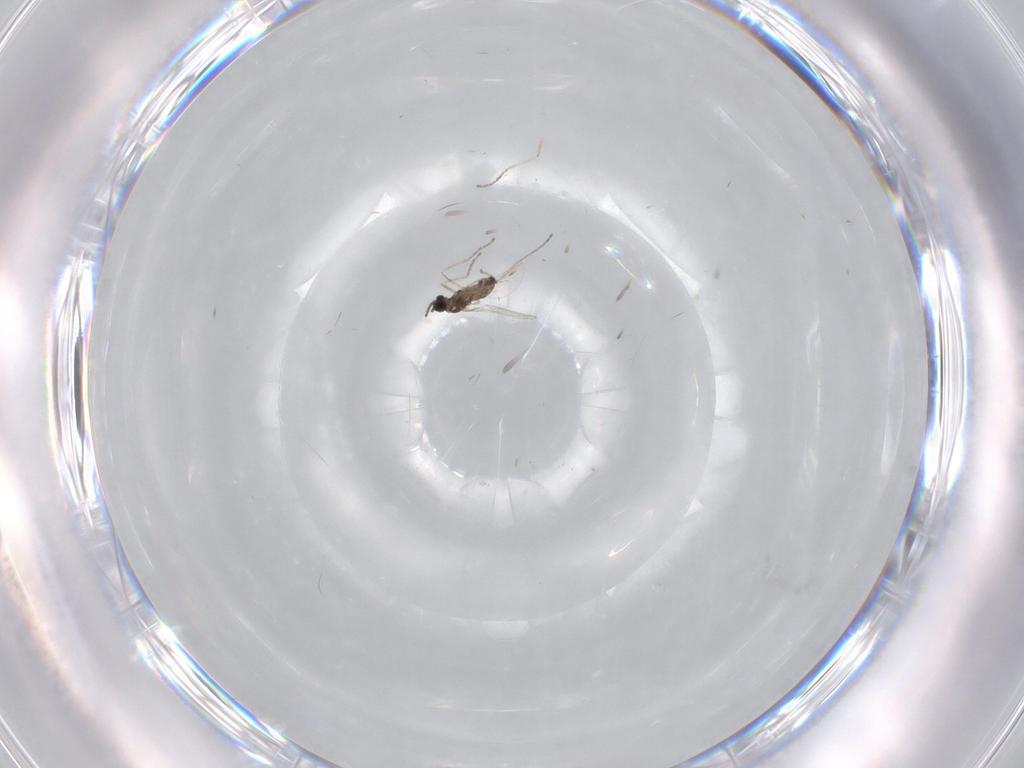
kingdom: Animalia
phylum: Arthropoda
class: Insecta
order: Diptera
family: Cecidomyiidae
